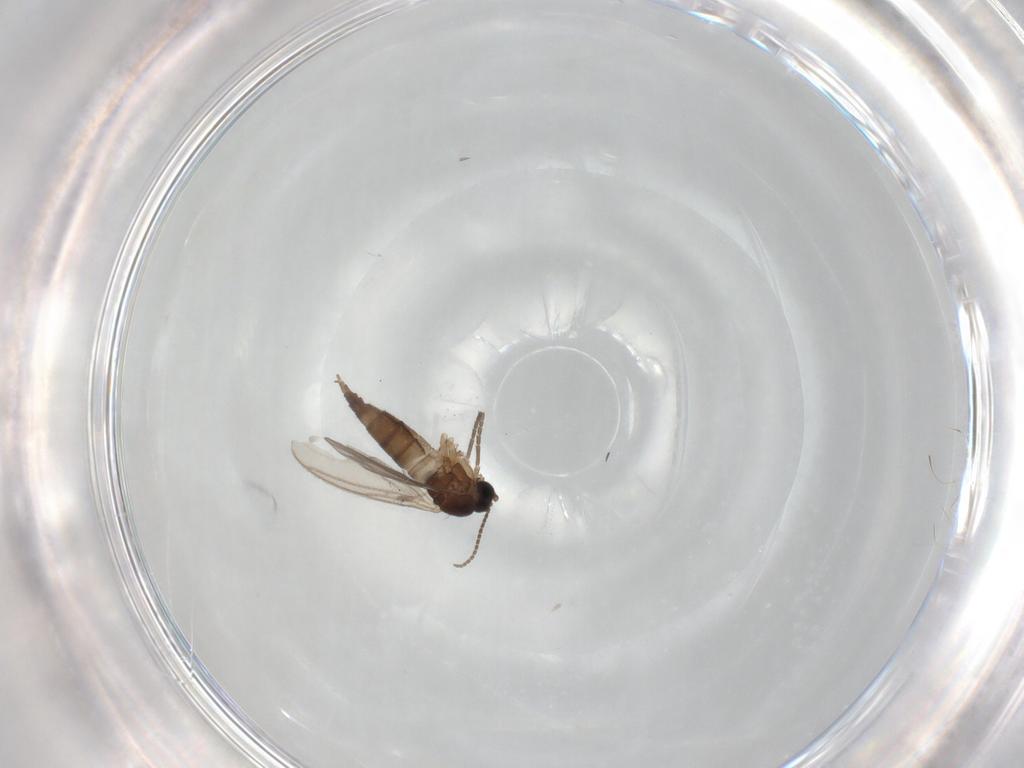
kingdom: Animalia
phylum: Arthropoda
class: Insecta
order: Diptera
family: Sciaridae
